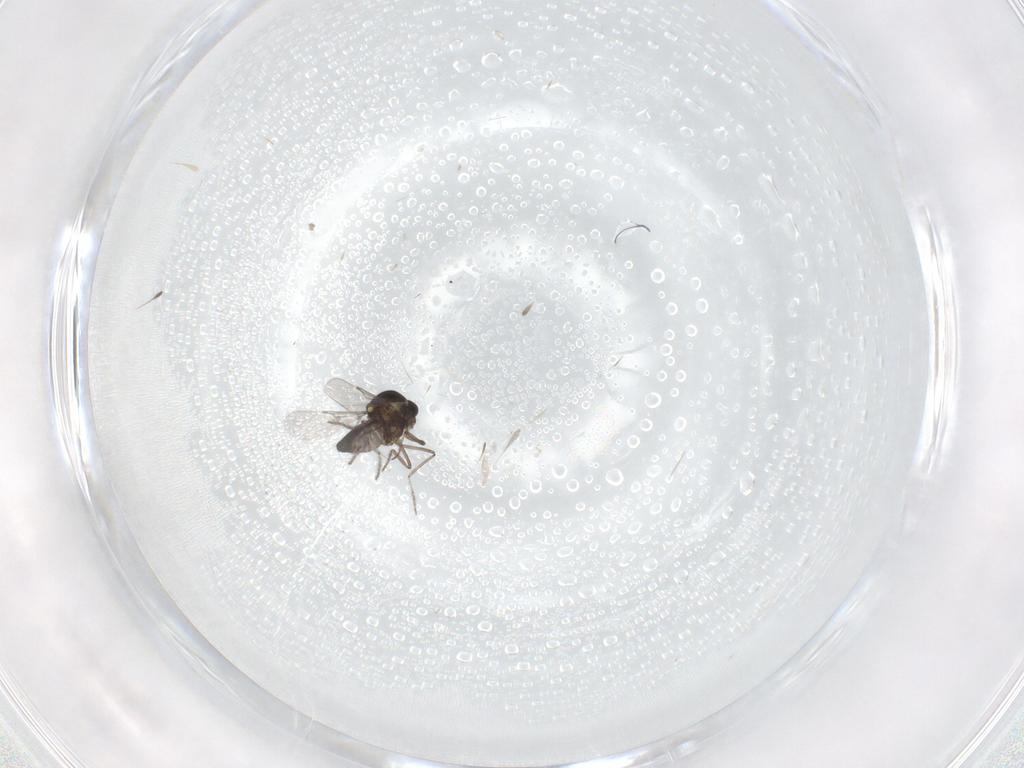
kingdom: Animalia
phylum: Arthropoda
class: Insecta
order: Diptera
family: Ceratopogonidae
